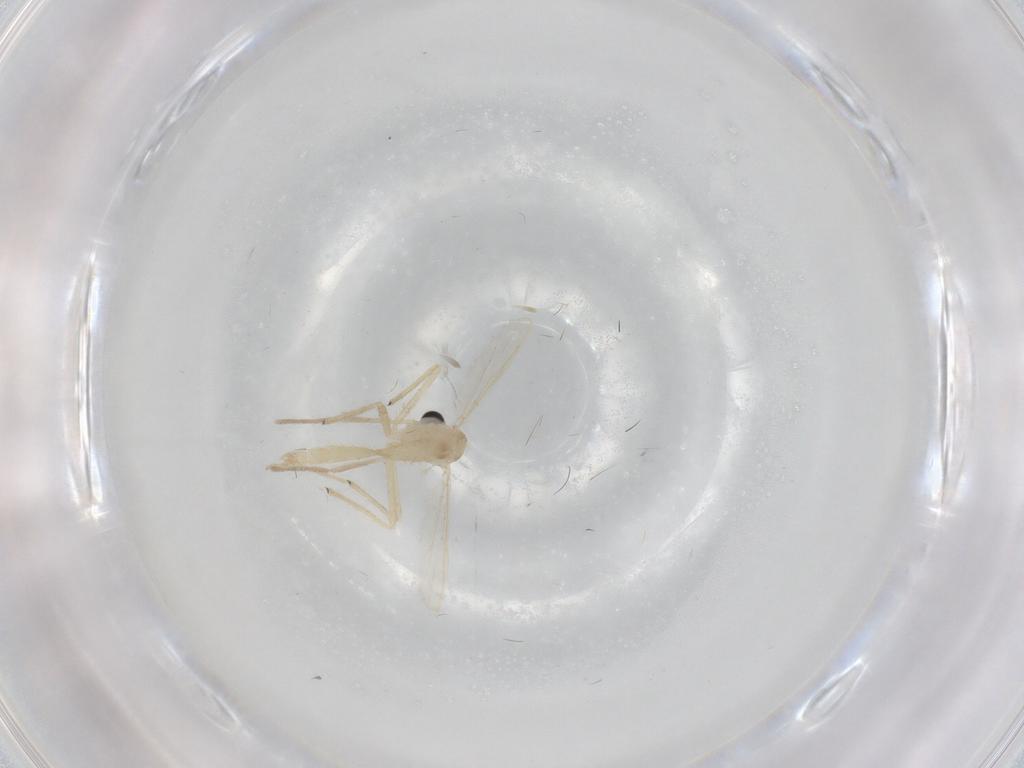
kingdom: Animalia
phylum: Arthropoda
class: Insecta
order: Diptera
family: Chironomidae
